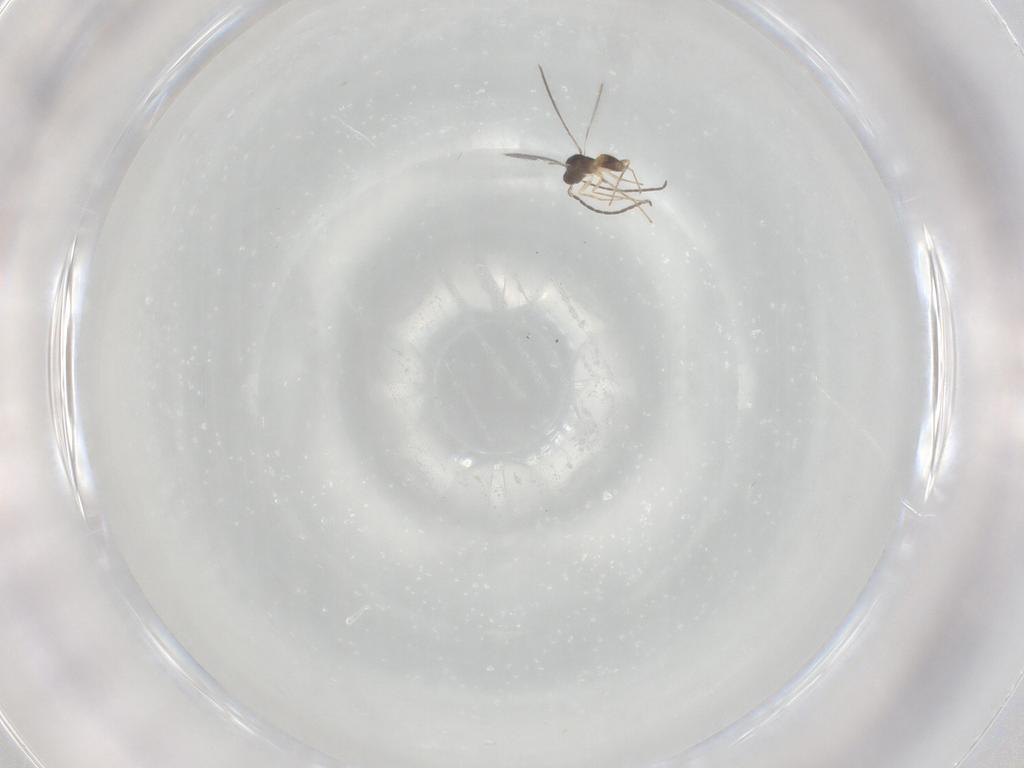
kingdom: Animalia
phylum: Arthropoda
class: Insecta
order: Hymenoptera
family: Mymaridae
